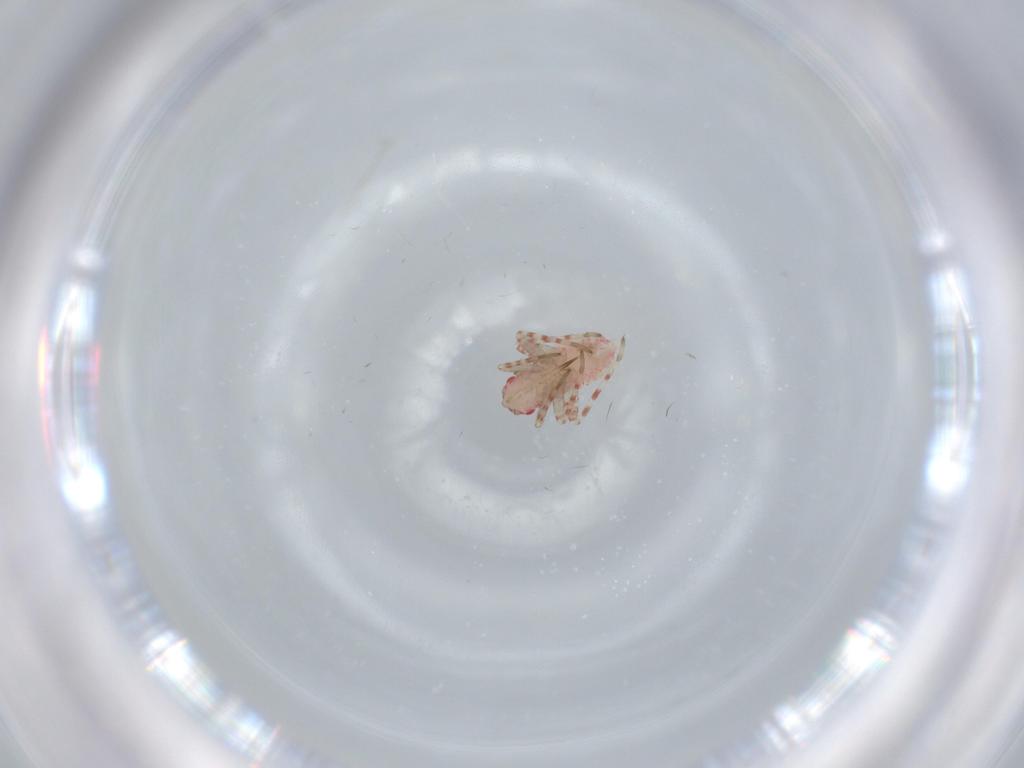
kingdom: Animalia
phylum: Arthropoda
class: Insecta
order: Hemiptera
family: Miridae
